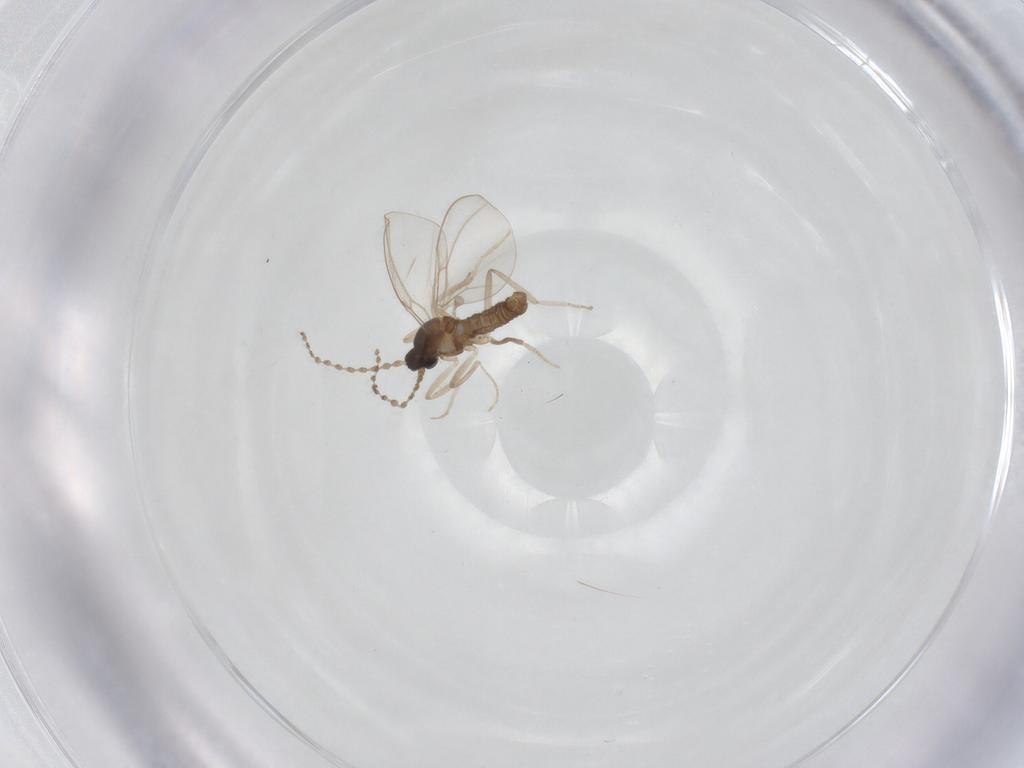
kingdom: Animalia
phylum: Arthropoda
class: Insecta
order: Diptera
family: Cecidomyiidae
